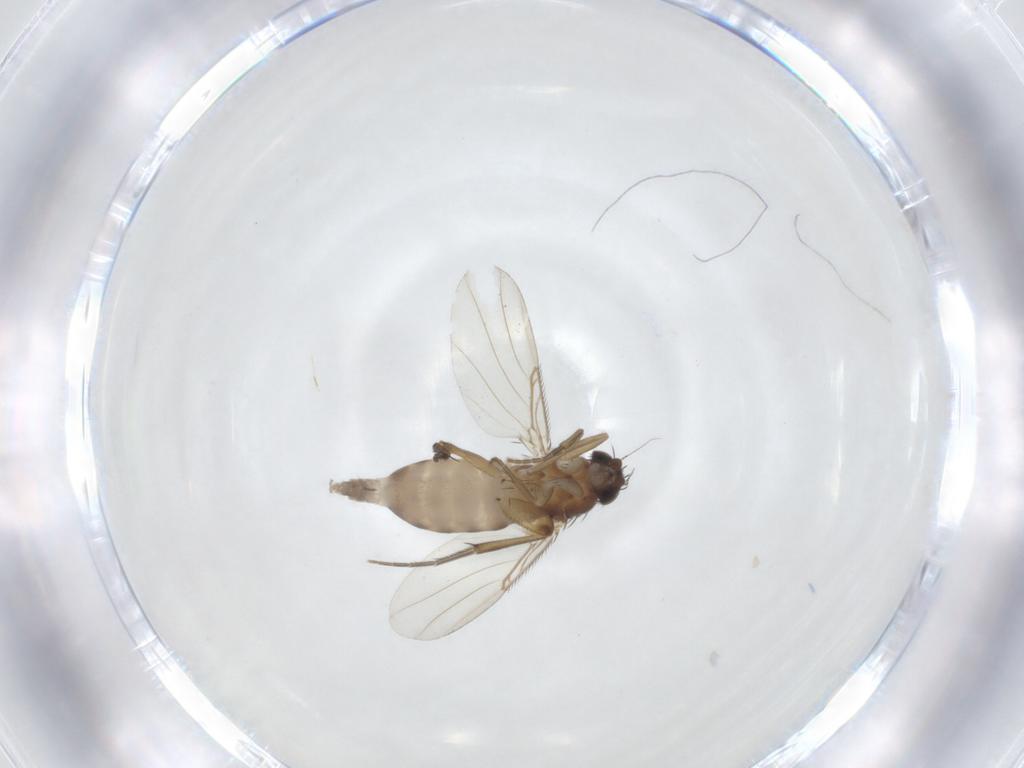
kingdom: Animalia
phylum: Arthropoda
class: Insecta
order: Diptera
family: Phoridae
